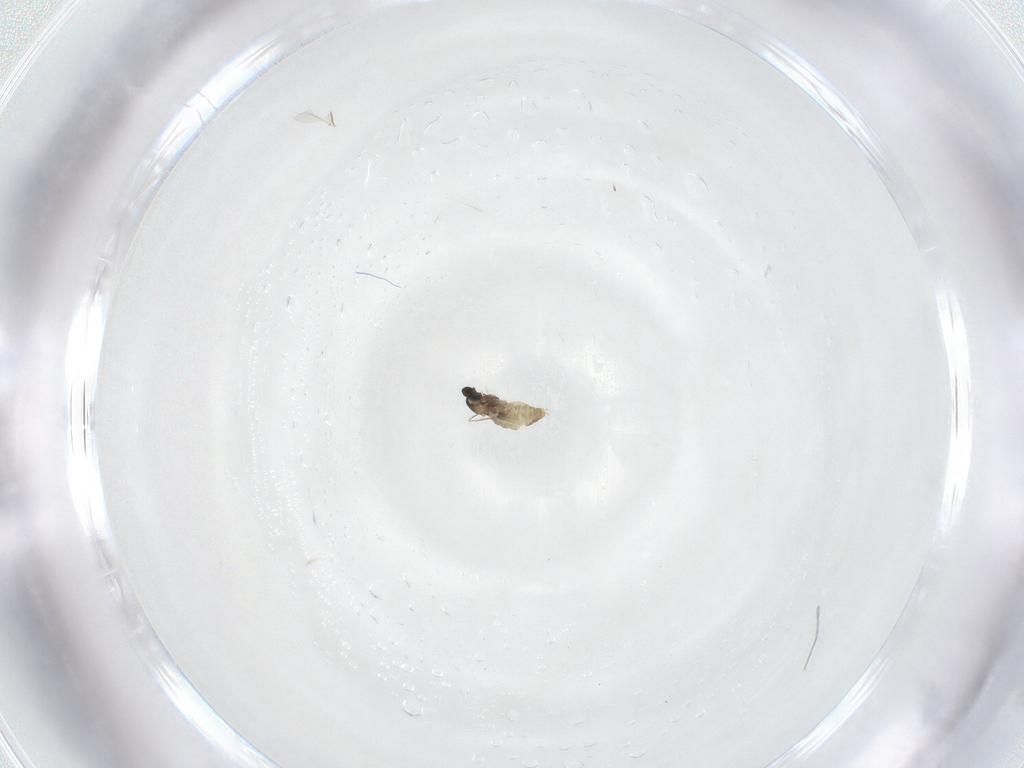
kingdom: Animalia
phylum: Arthropoda
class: Insecta
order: Diptera
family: Cecidomyiidae
